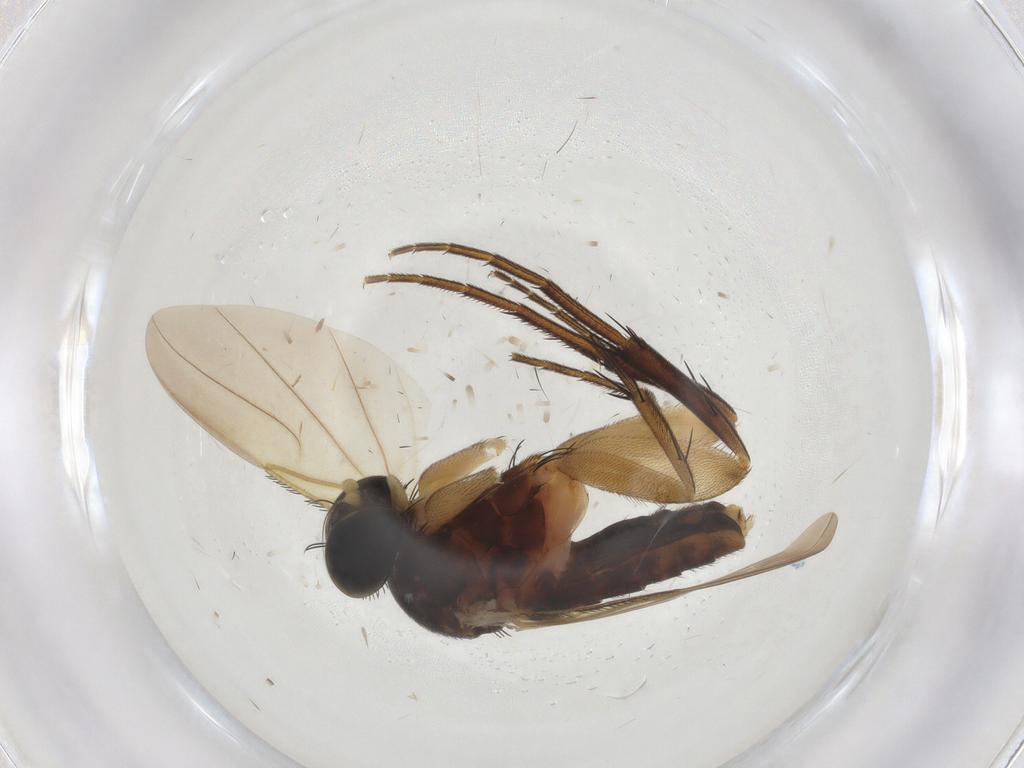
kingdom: Animalia
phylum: Arthropoda
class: Insecta
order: Diptera
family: Phoridae
